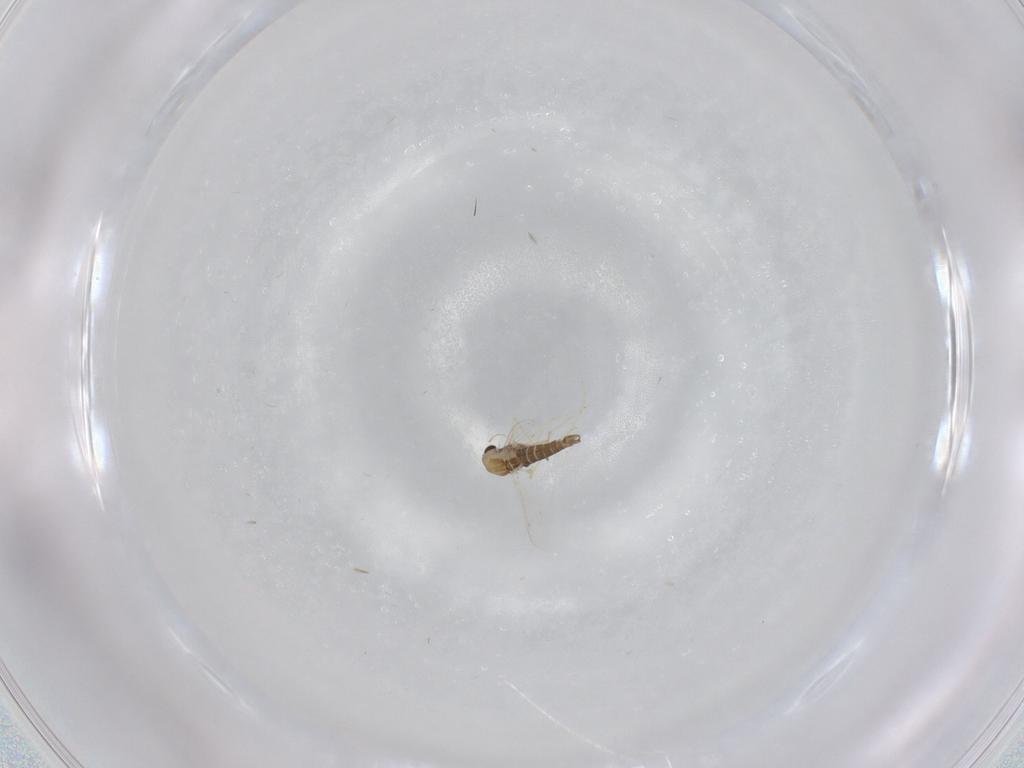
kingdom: Animalia
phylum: Arthropoda
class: Insecta
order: Diptera
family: Chironomidae
